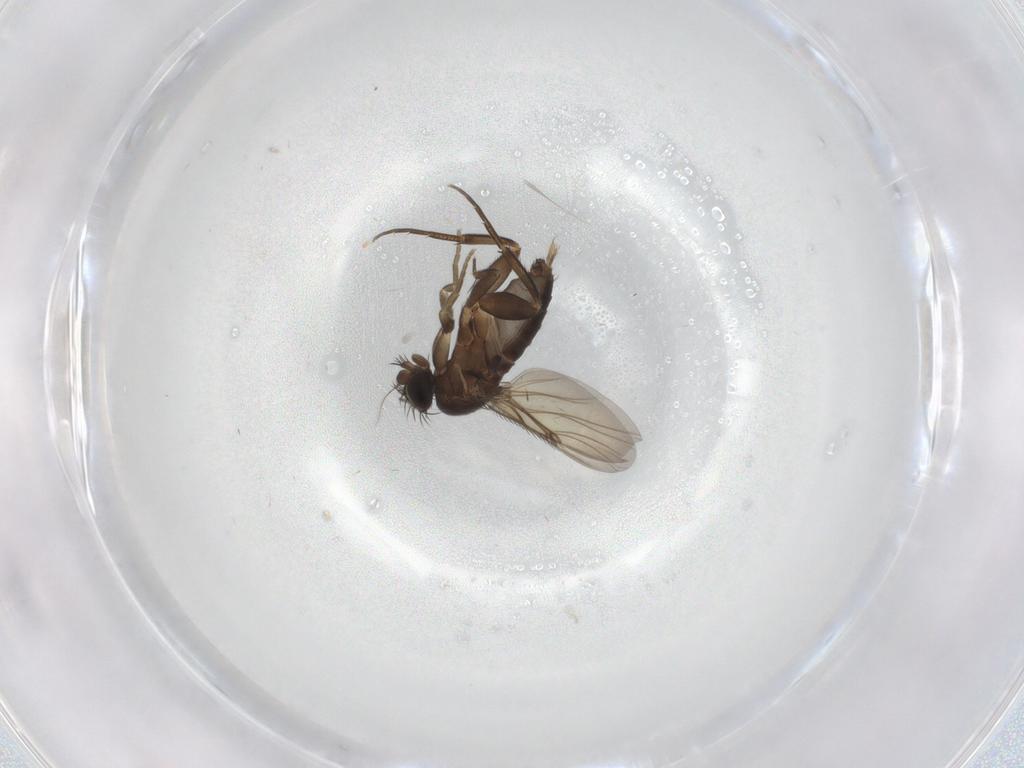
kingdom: Animalia
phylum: Arthropoda
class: Insecta
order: Diptera
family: Phoridae
